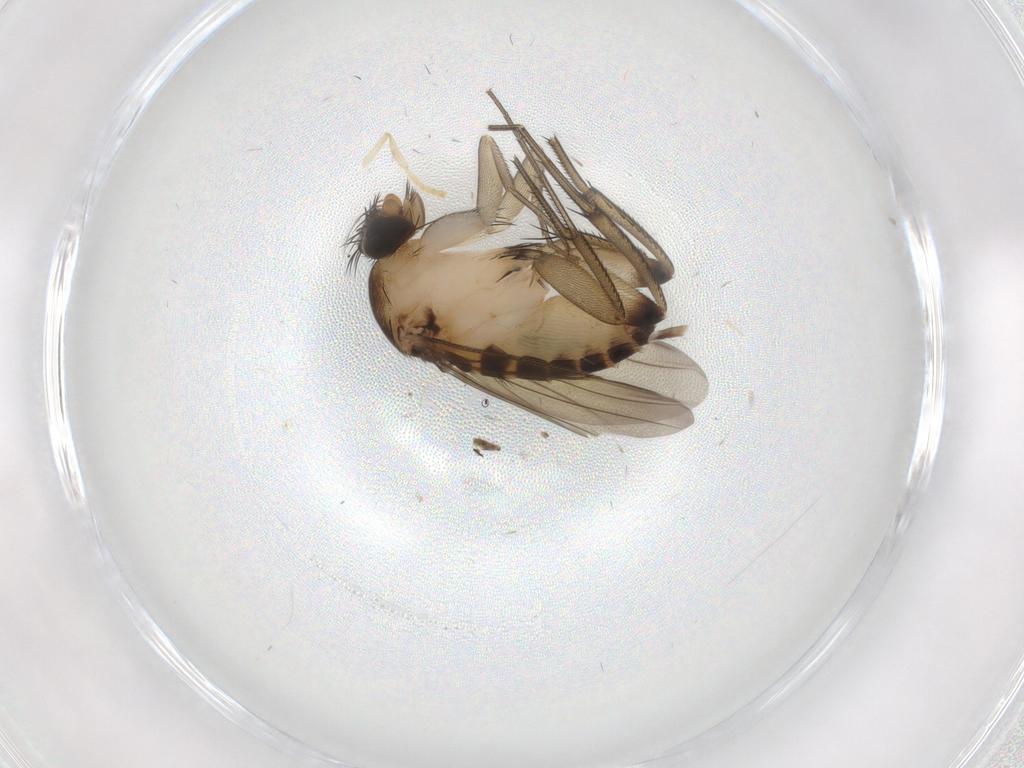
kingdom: Animalia
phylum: Arthropoda
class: Insecta
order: Diptera
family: Phoridae
